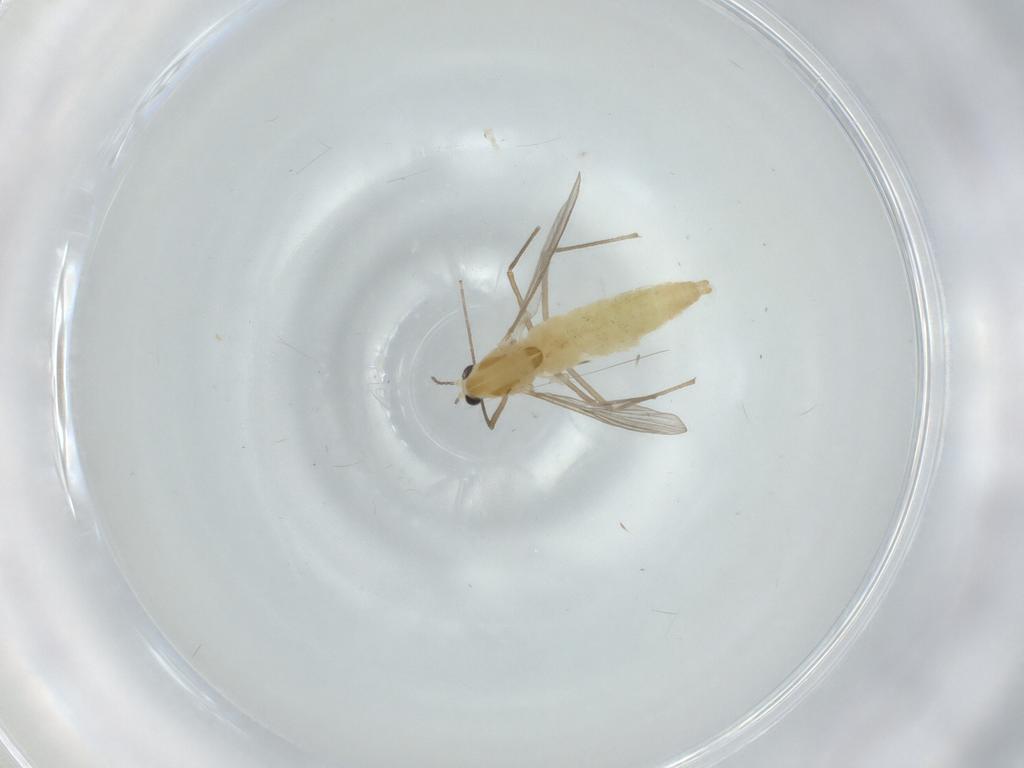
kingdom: Animalia
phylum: Arthropoda
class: Insecta
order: Diptera
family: Chironomidae
